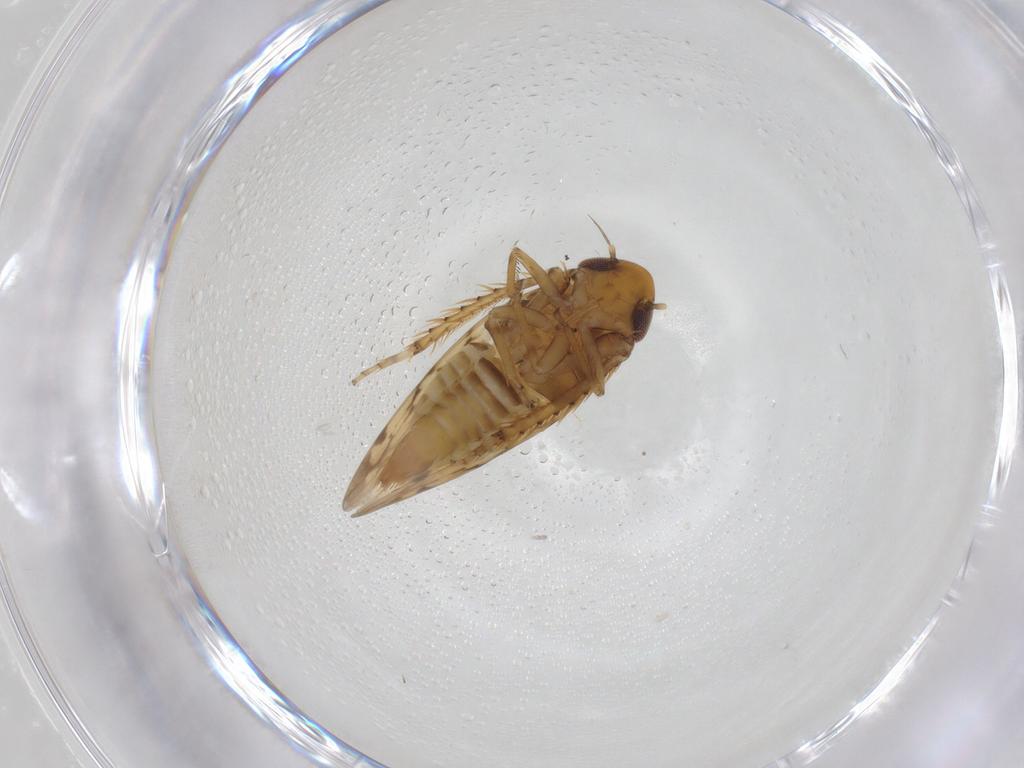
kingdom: Animalia
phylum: Arthropoda
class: Insecta
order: Hemiptera
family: Cicadellidae
